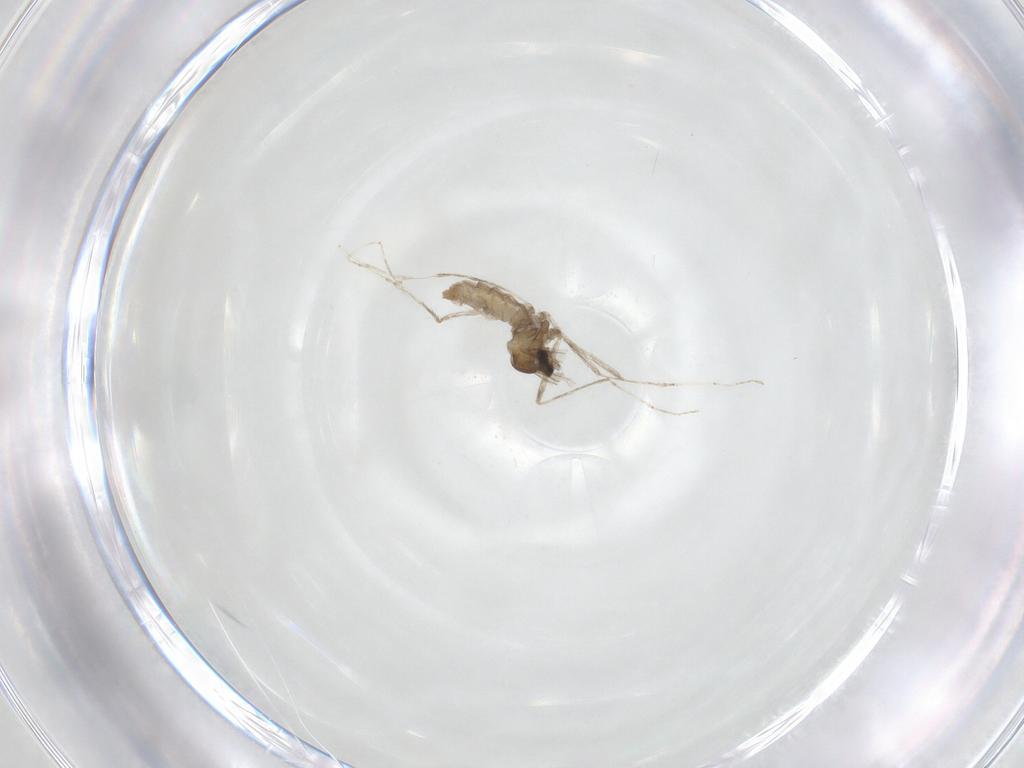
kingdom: Animalia
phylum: Arthropoda
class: Insecta
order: Diptera
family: Cecidomyiidae
